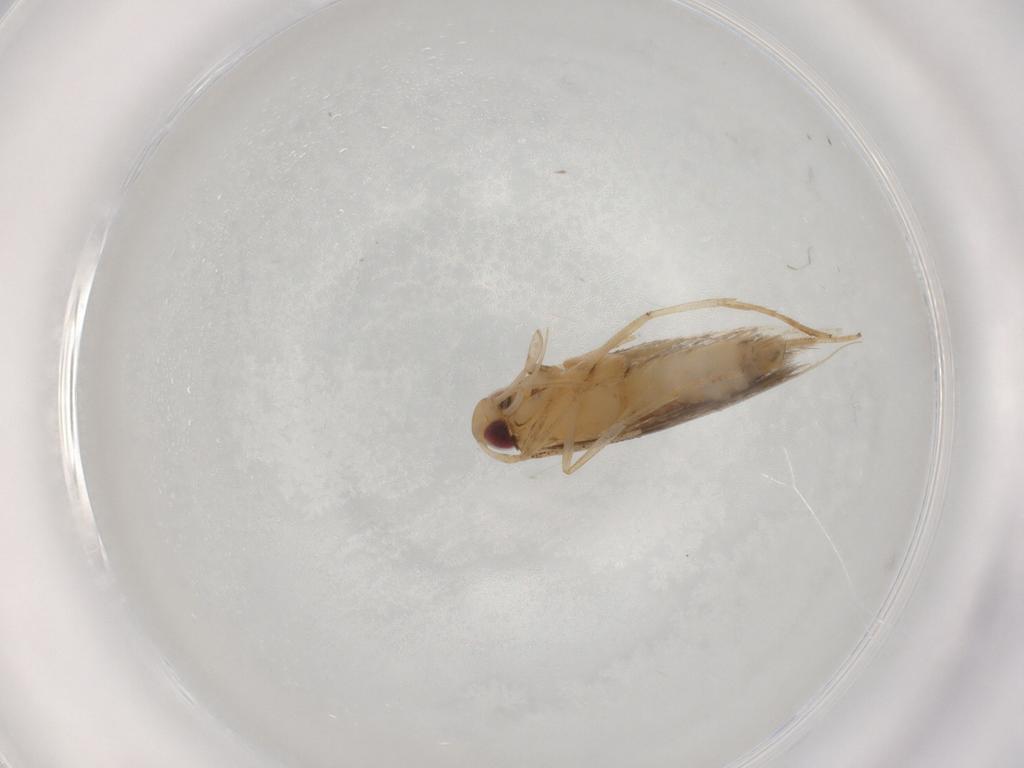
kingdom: Animalia
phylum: Arthropoda
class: Insecta
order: Lepidoptera
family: Cosmopterigidae
